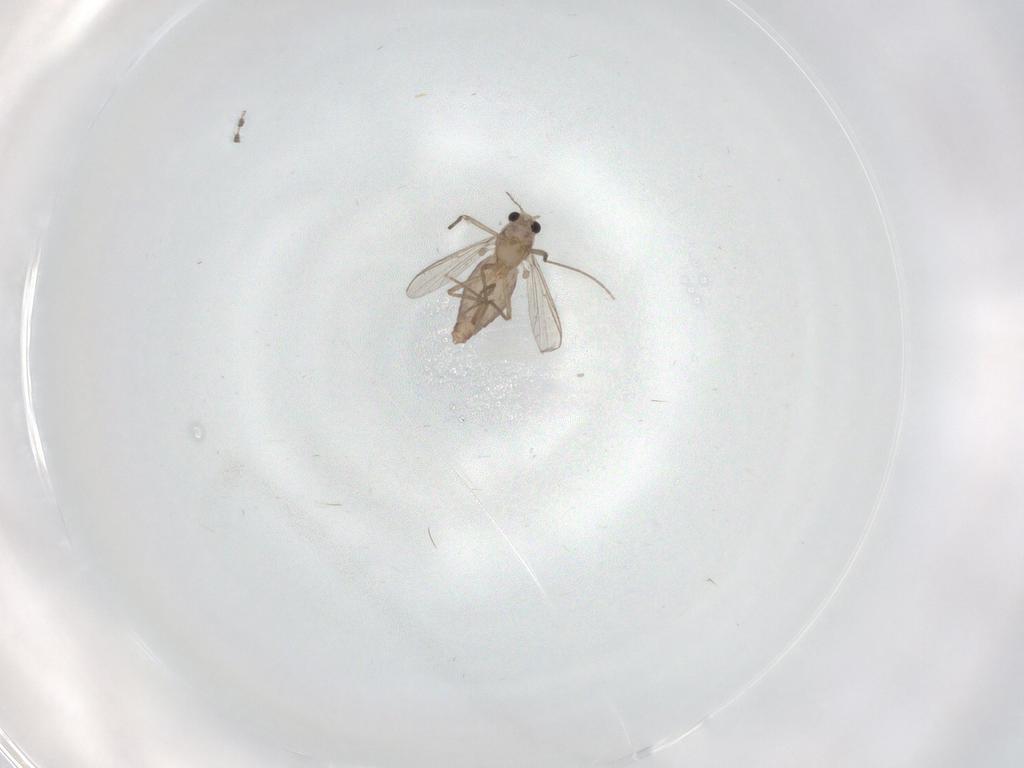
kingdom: Animalia
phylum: Arthropoda
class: Insecta
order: Diptera
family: Chironomidae
